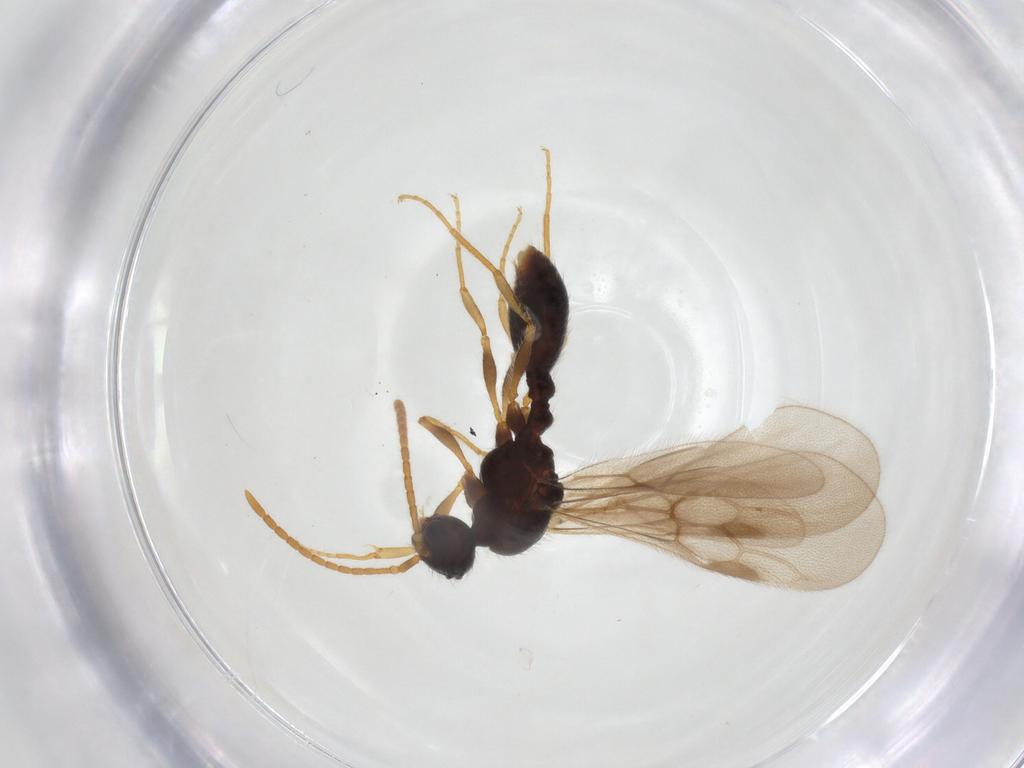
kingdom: Animalia
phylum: Arthropoda
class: Insecta
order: Hymenoptera
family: Formicidae
